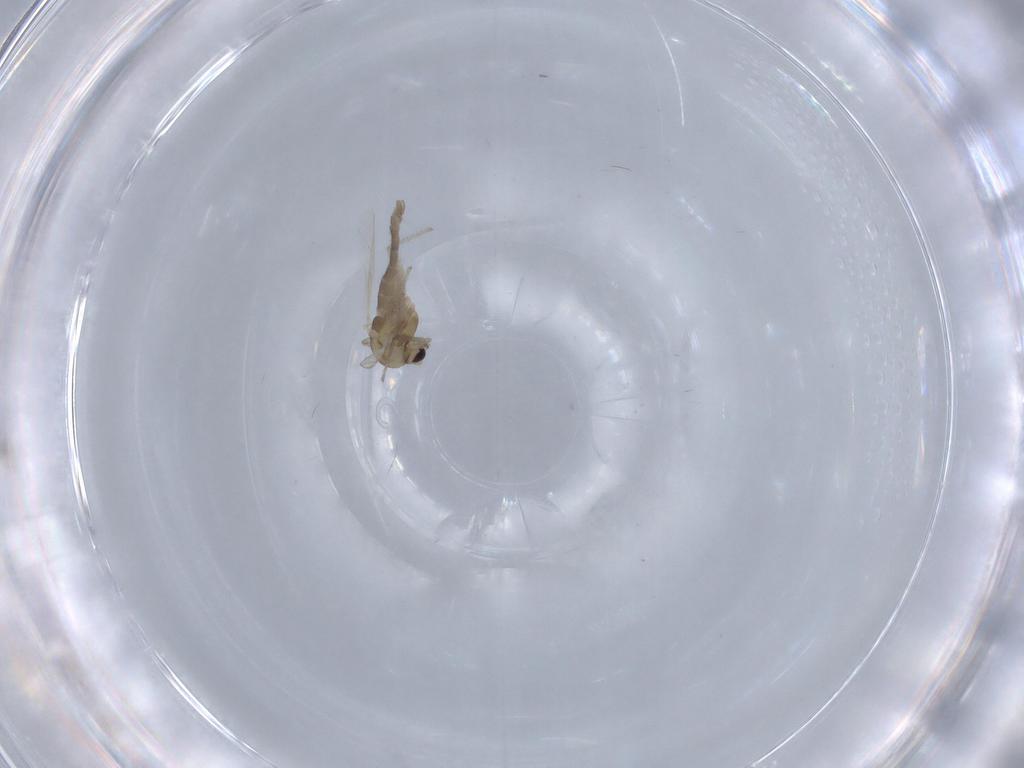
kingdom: Animalia
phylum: Arthropoda
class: Insecta
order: Diptera
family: Chironomidae
